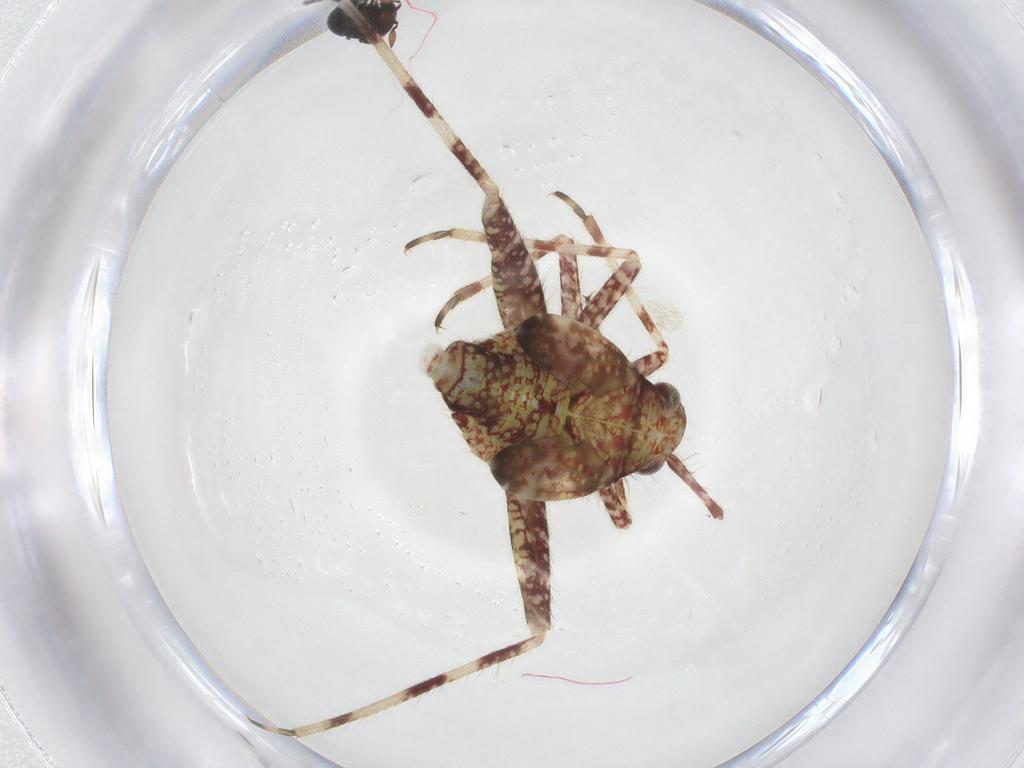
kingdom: Animalia
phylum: Arthropoda
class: Insecta
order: Hemiptera
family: Miridae
